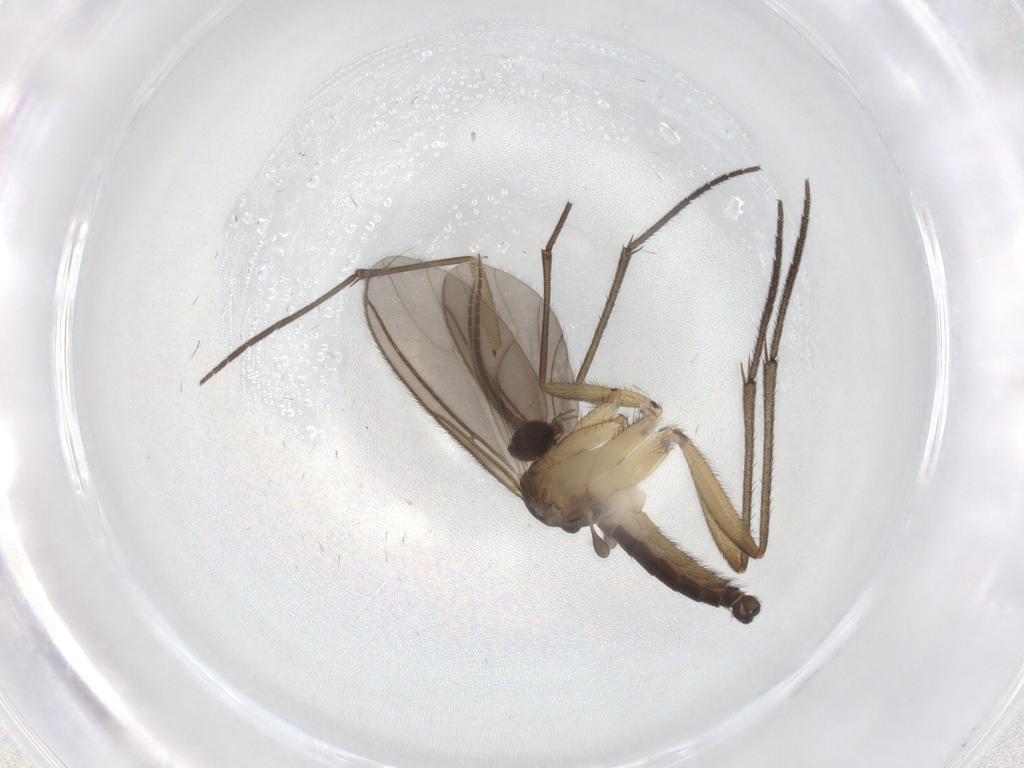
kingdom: Animalia
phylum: Arthropoda
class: Insecta
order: Diptera
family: Sciaridae
